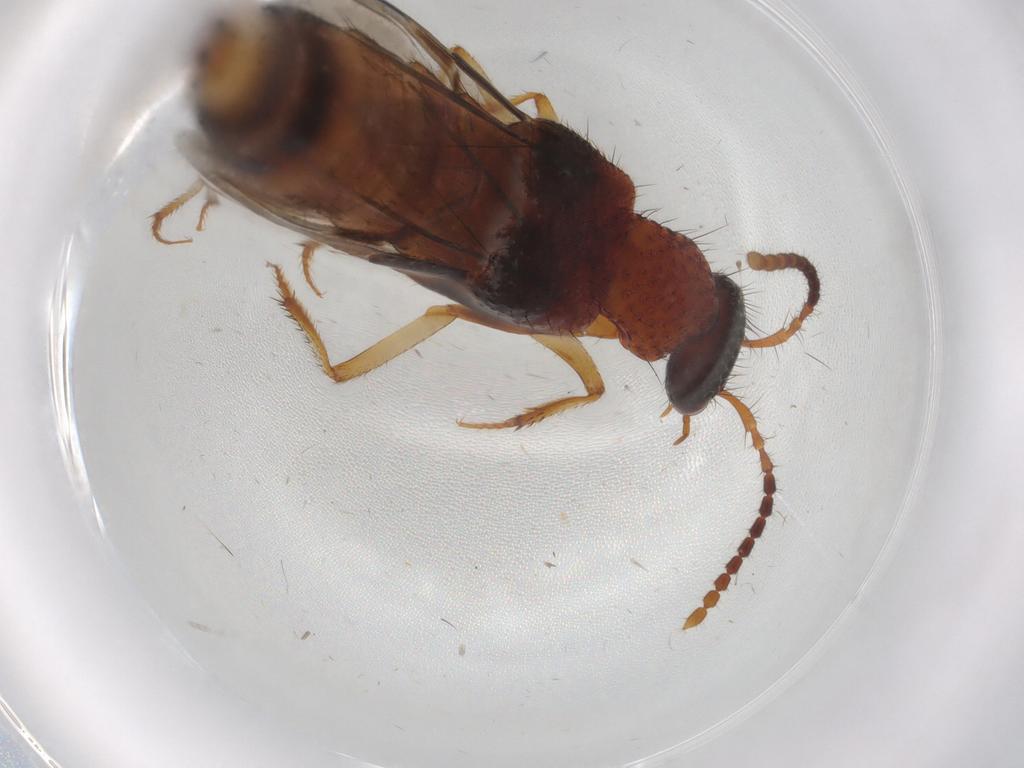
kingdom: Animalia
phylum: Arthropoda
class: Insecta
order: Coleoptera
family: Ptilodactylidae
